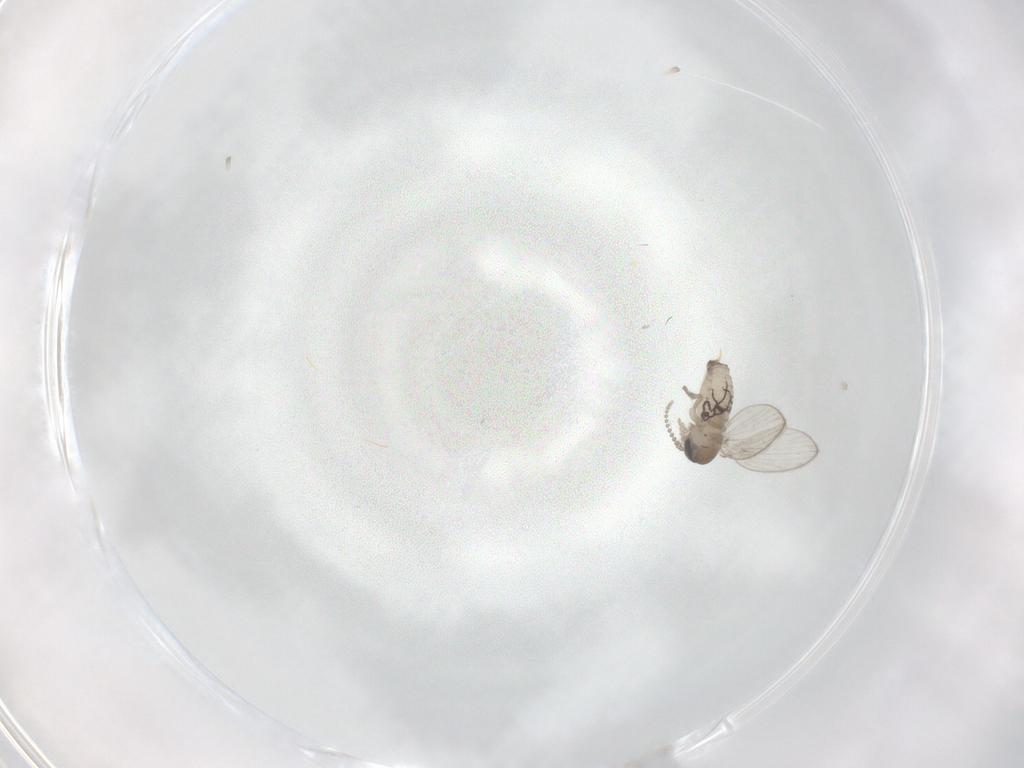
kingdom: Animalia
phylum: Arthropoda
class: Insecta
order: Diptera
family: Psychodidae
